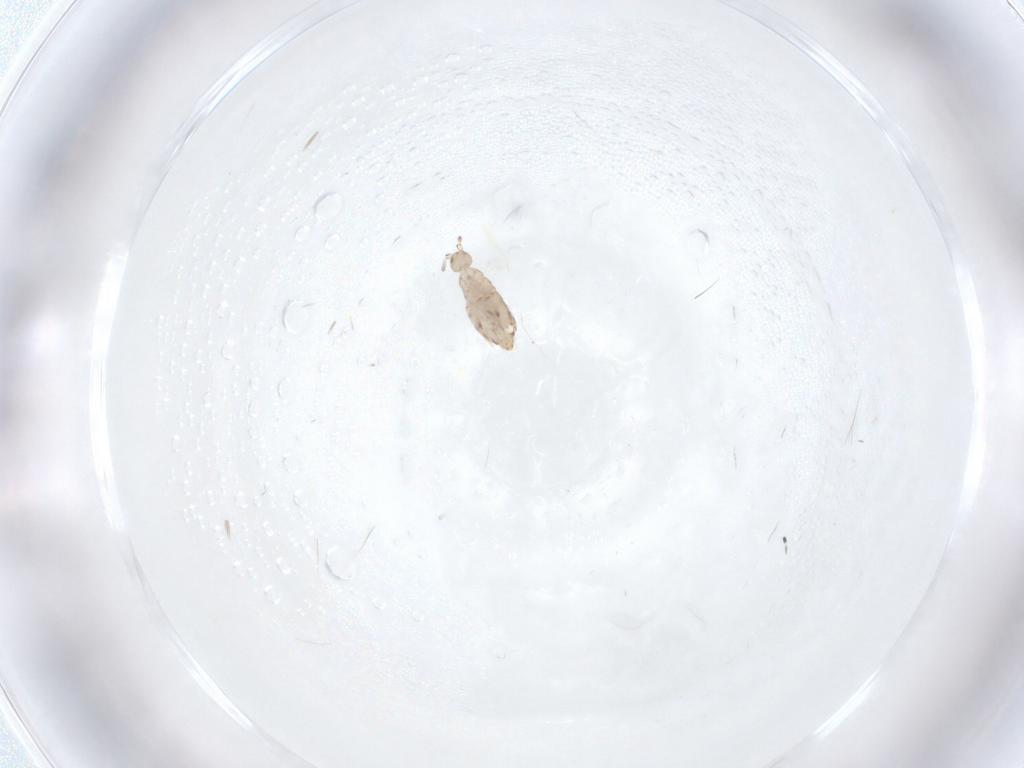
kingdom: Animalia
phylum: Arthropoda
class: Collembola
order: Entomobryomorpha
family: Entomobryidae
